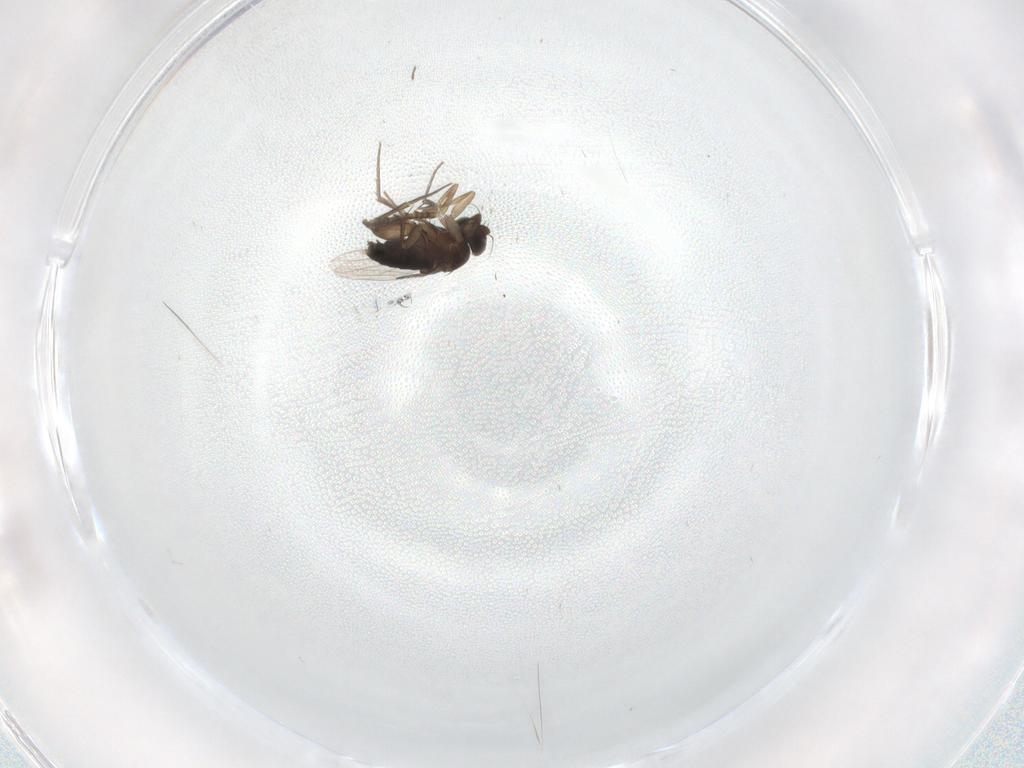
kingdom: Animalia
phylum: Arthropoda
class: Insecta
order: Diptera
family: Phoridae
